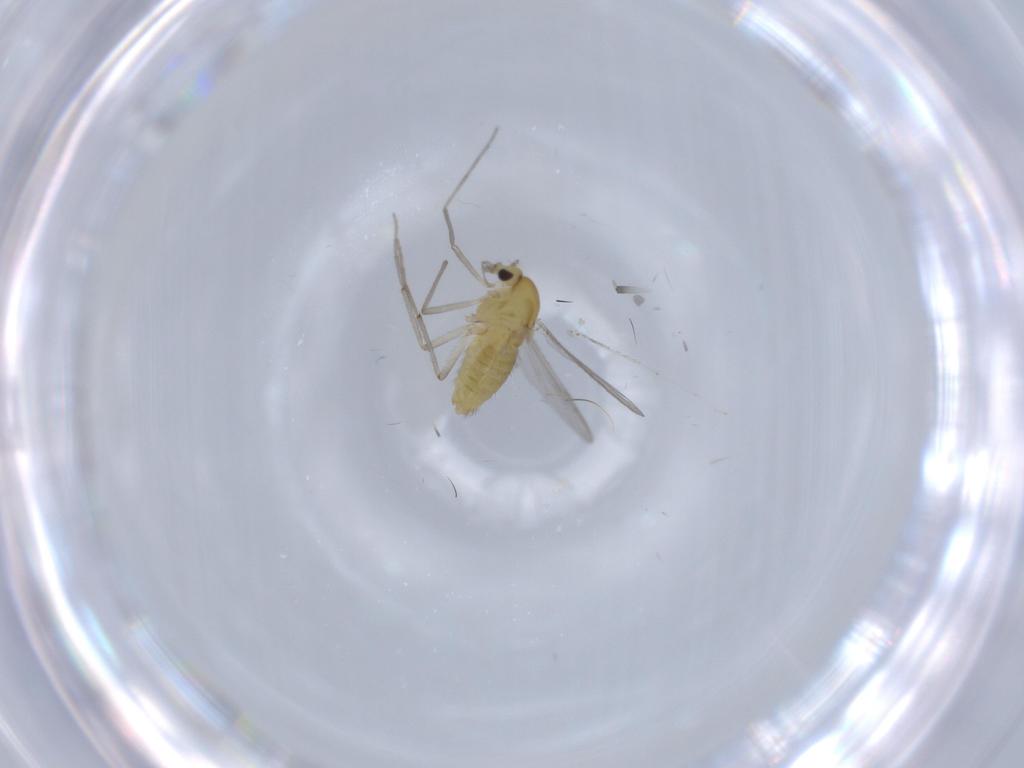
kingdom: Animalia
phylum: Arthropoda
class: Insecta
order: Diptera
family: Chironomidae
